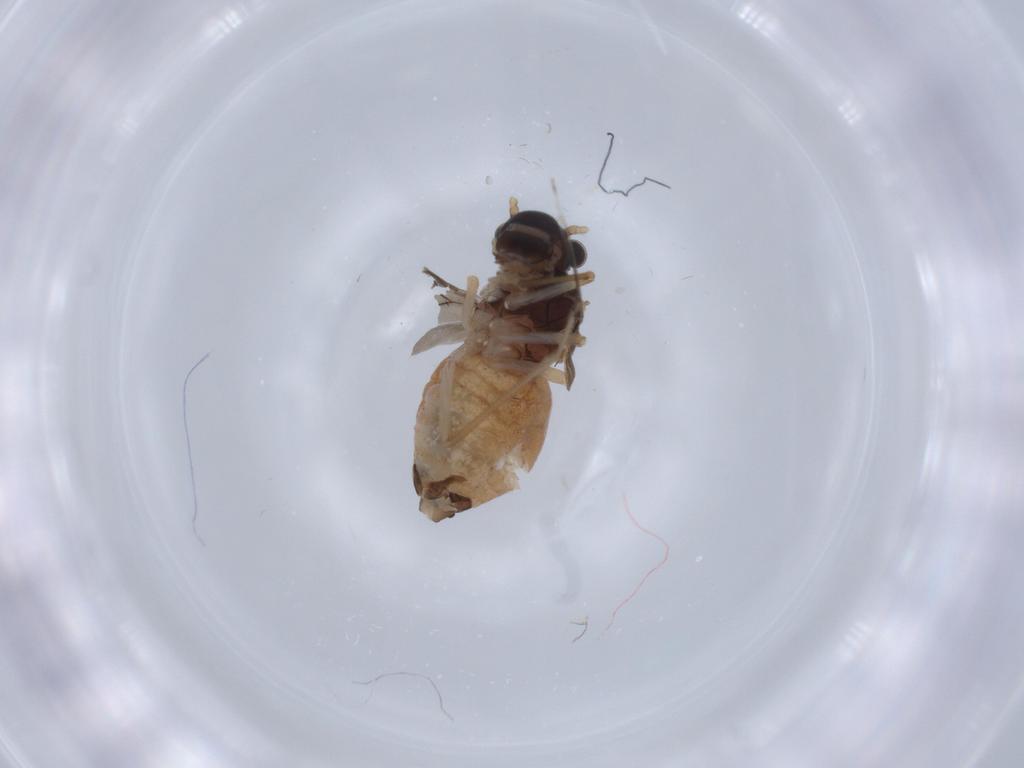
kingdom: Animalia
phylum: Arthropoda
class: Insecta
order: Psocodea
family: Caeciliusidae
